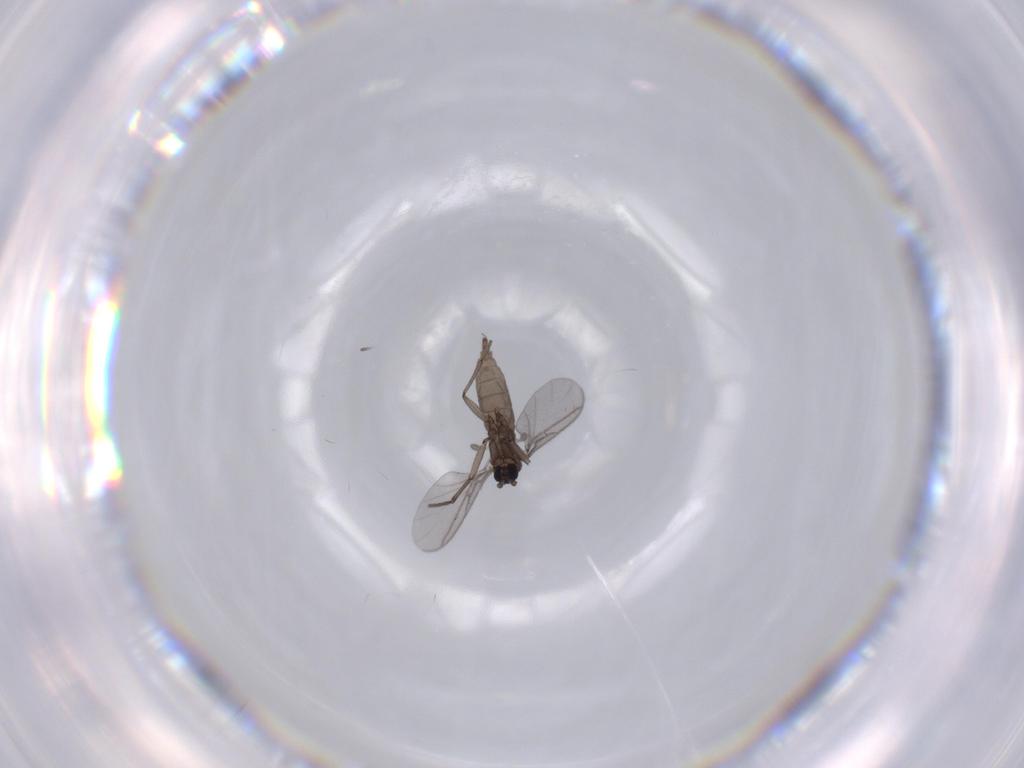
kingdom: Animalia
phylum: Arthropoda
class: Insecta
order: Diptera
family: Sciaridae
